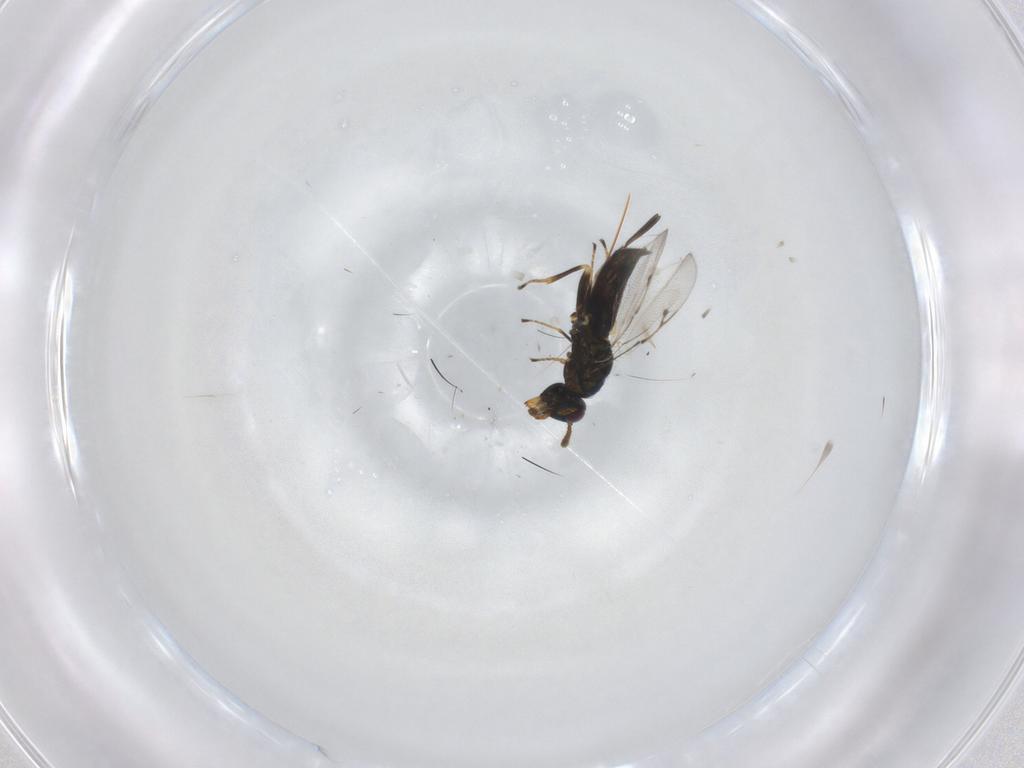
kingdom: Animalia
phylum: Arthropoda
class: Insecta
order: Hymenoptera
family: Pirenidae
